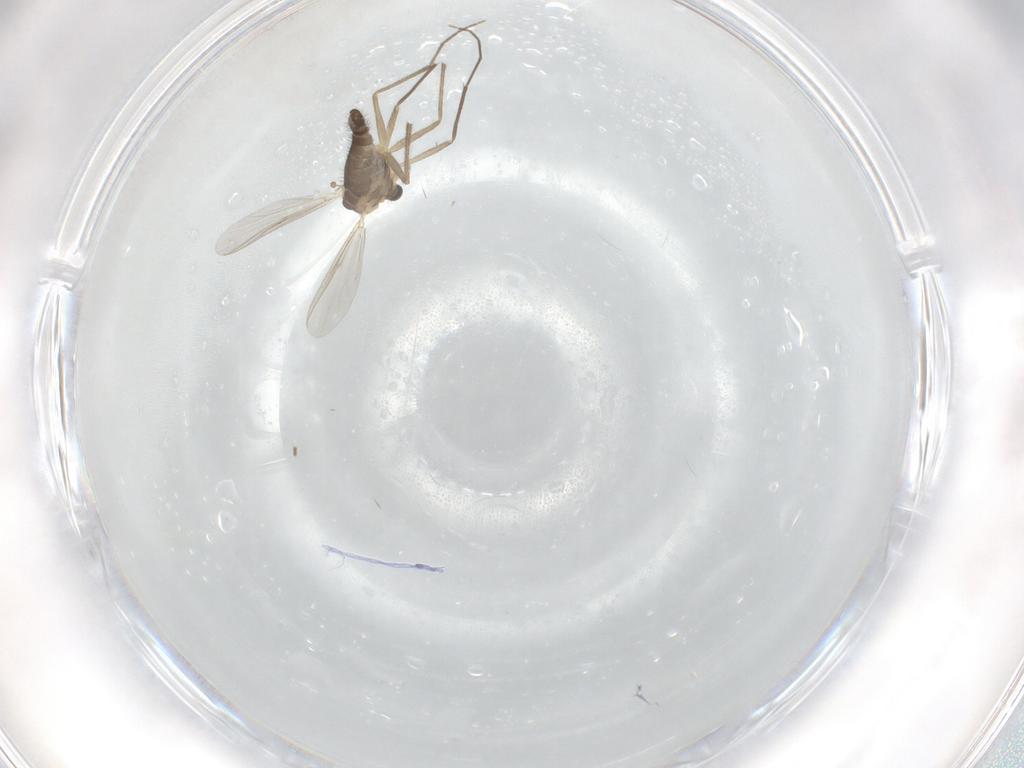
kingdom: Animalia
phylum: Arthropoda
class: Insecta
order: Diptera
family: Chironomidae
